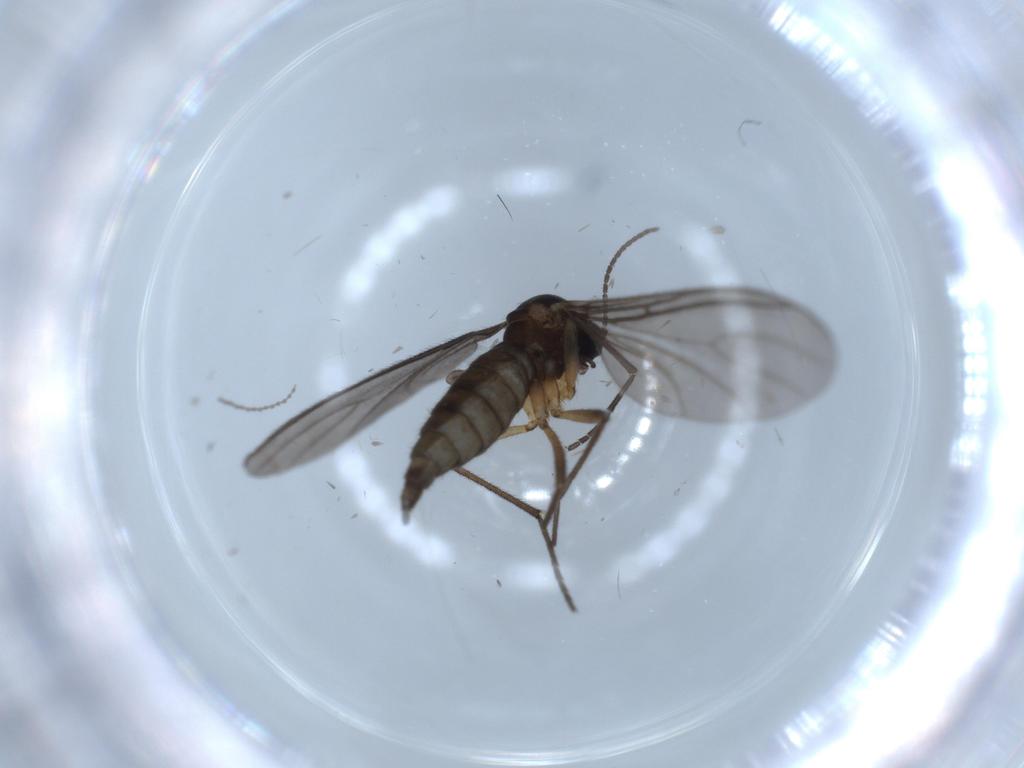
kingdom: Animalia
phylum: Arthropoda
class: Insecta
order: Diptera
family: Sciaridae
